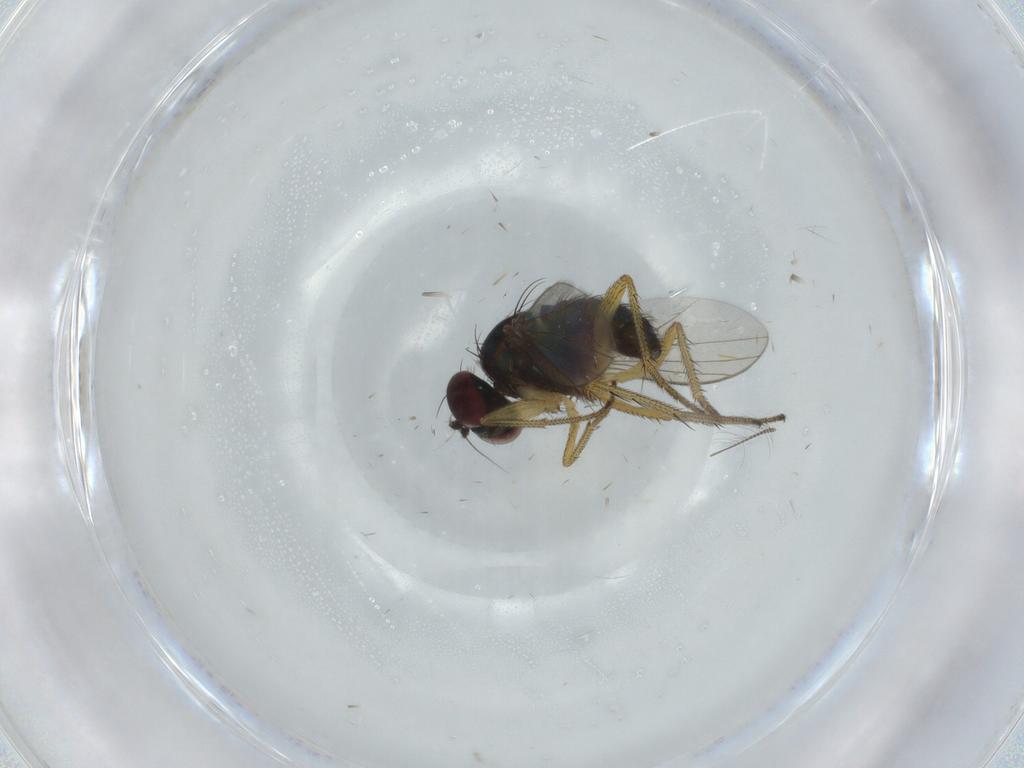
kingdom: Animalia
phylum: Arthropoda
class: Insecta
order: Diptera
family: Dolichopodidae
